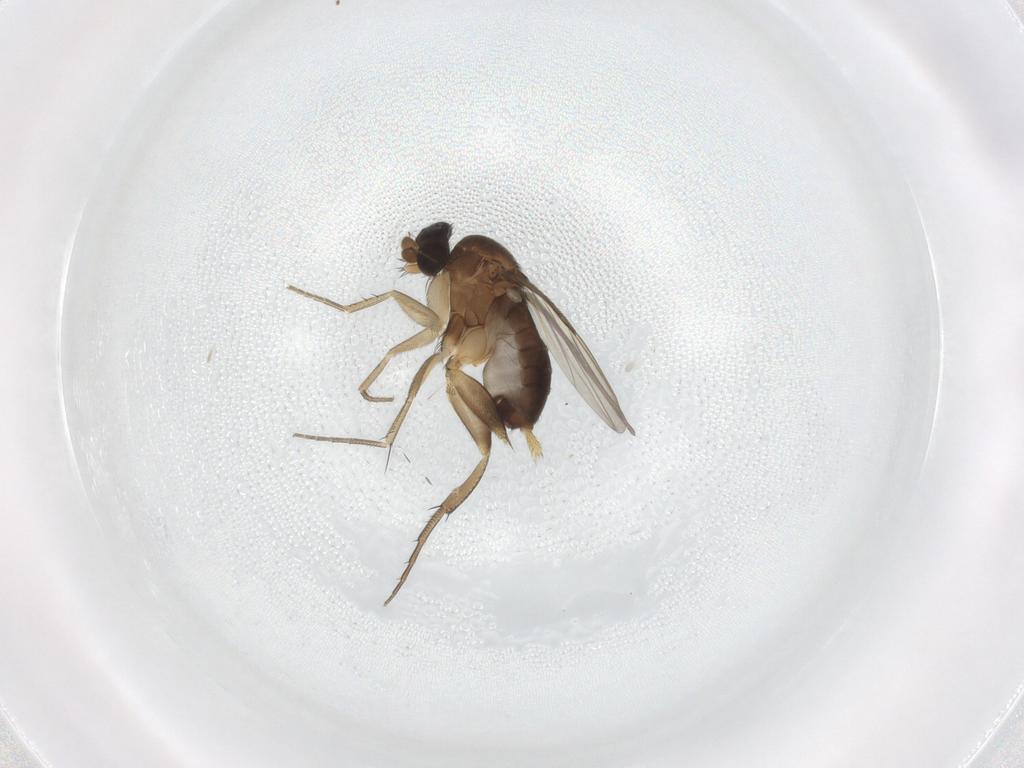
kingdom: Animalia
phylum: Arthropoda
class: Insecta
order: Diptera
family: Phoridae
